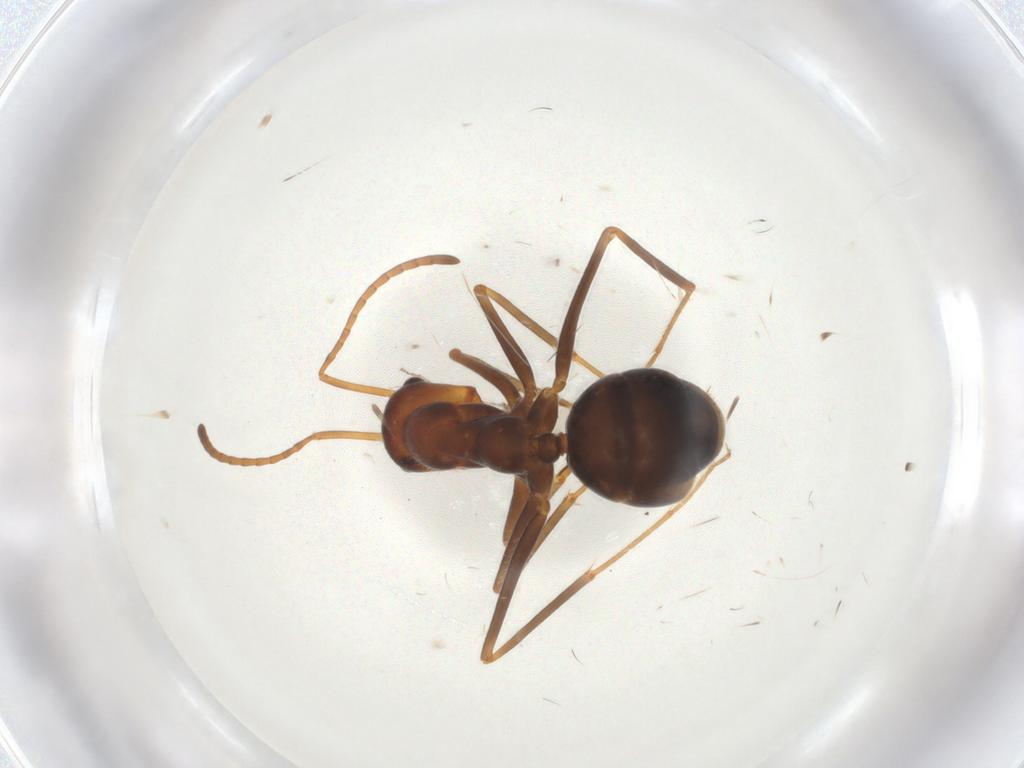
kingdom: Animalia
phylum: Arthropoda
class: Insecta
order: Hymenoptera
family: Formicidae
